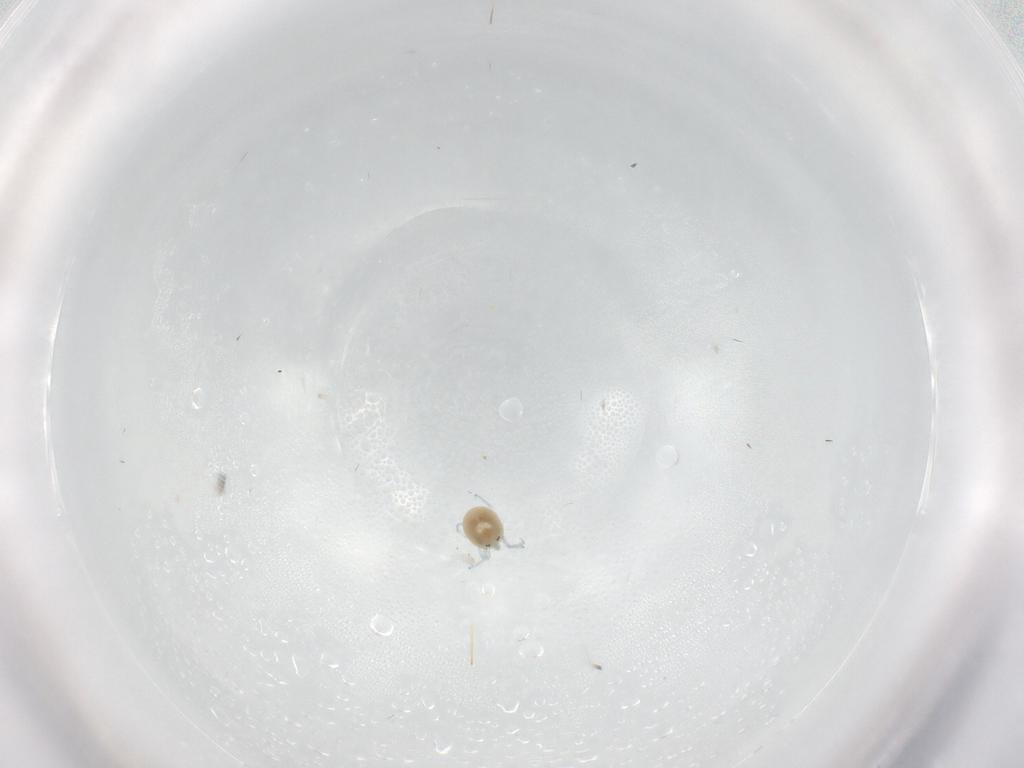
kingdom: Animalia
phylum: Arthropoda
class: Arachnida
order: Trombidiformes
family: Limnesiidae
